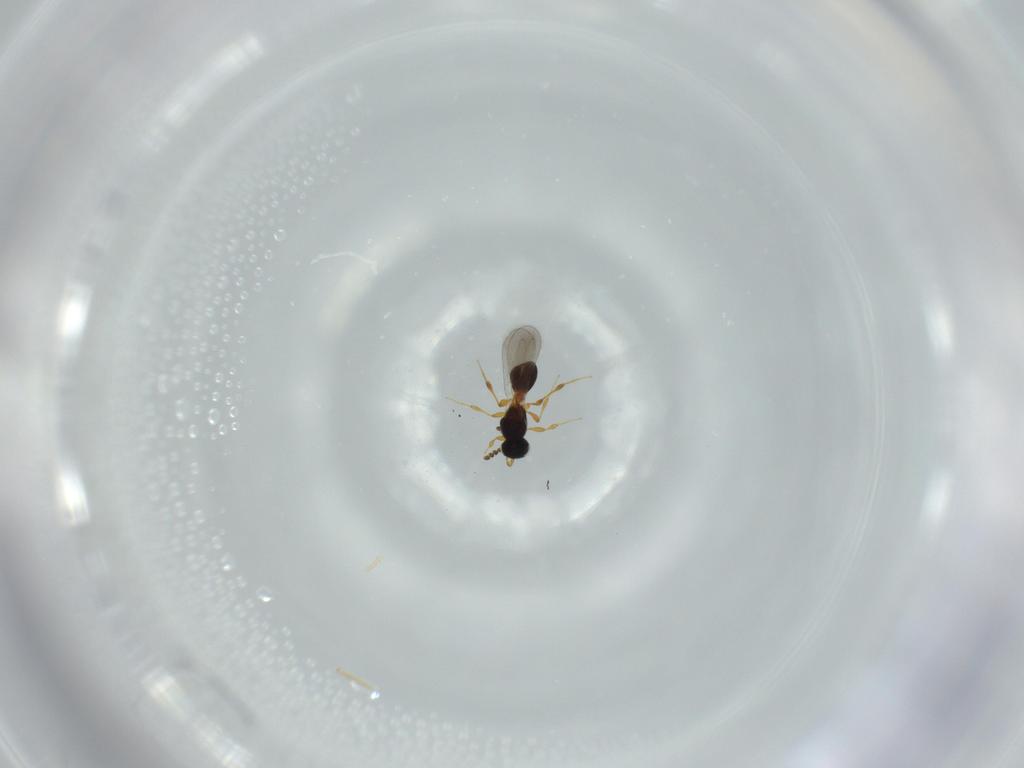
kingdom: Animalia
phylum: Arthropoda
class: Insecta
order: Hymenoptera
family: Platygastridae
